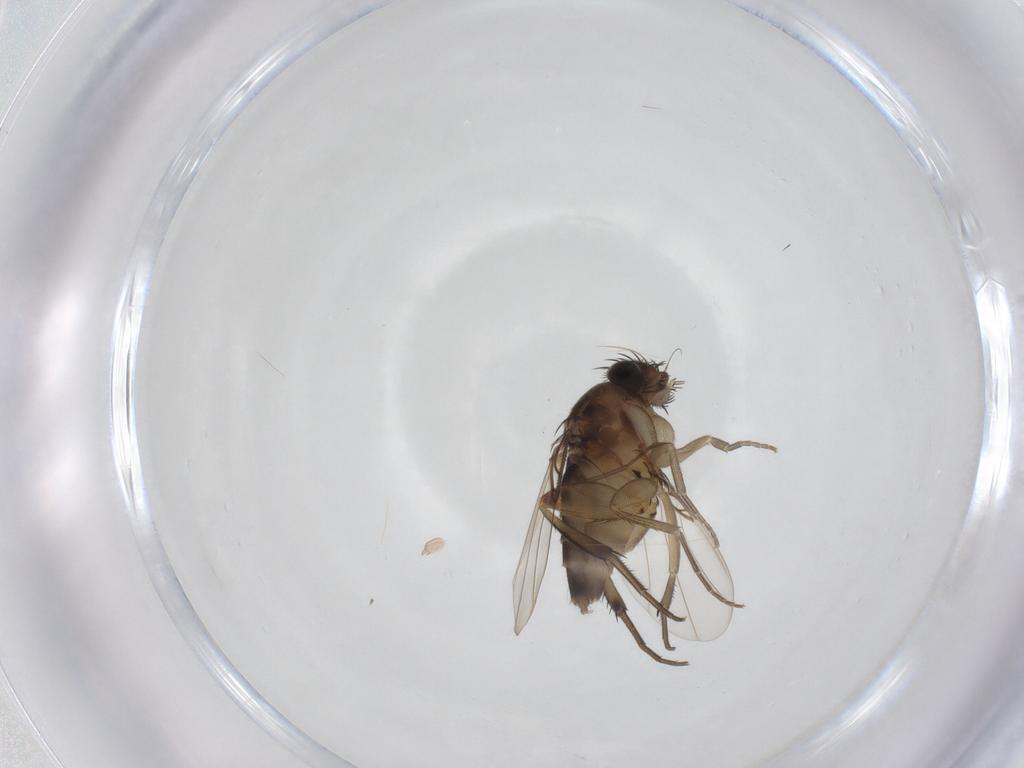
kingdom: Animalia
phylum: Arthropoda
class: Insecta
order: Diptera
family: Phoridae
